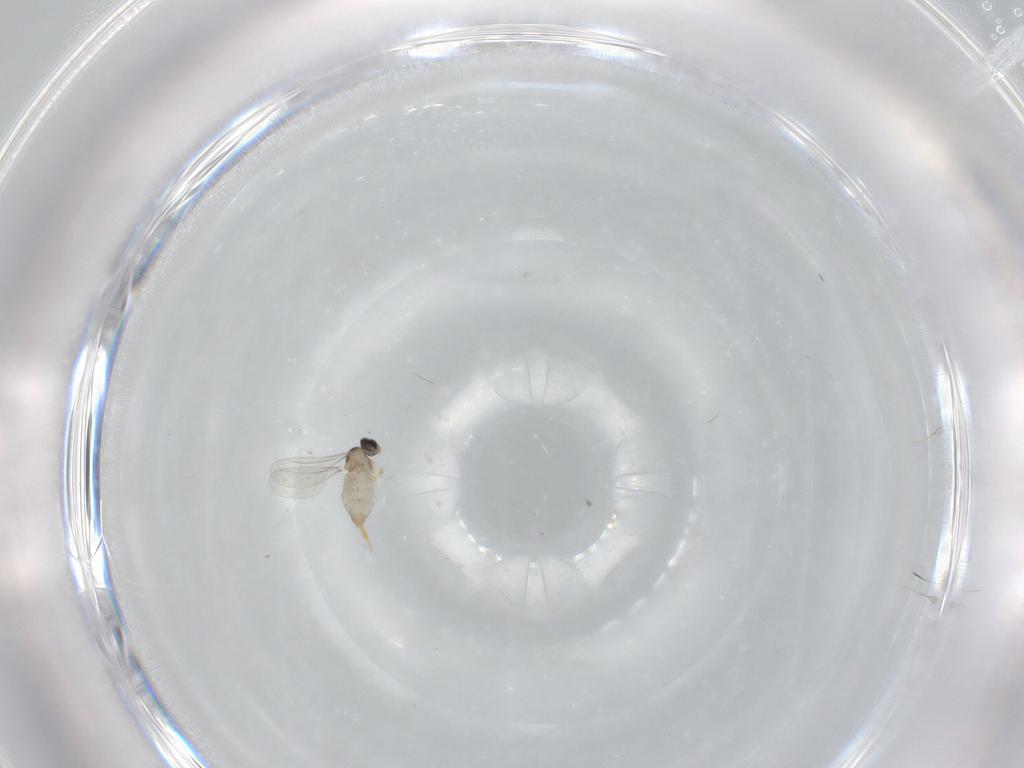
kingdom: Animalia
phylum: Arthropoda
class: Insecta
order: Diptera
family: Cecidomyiidae
